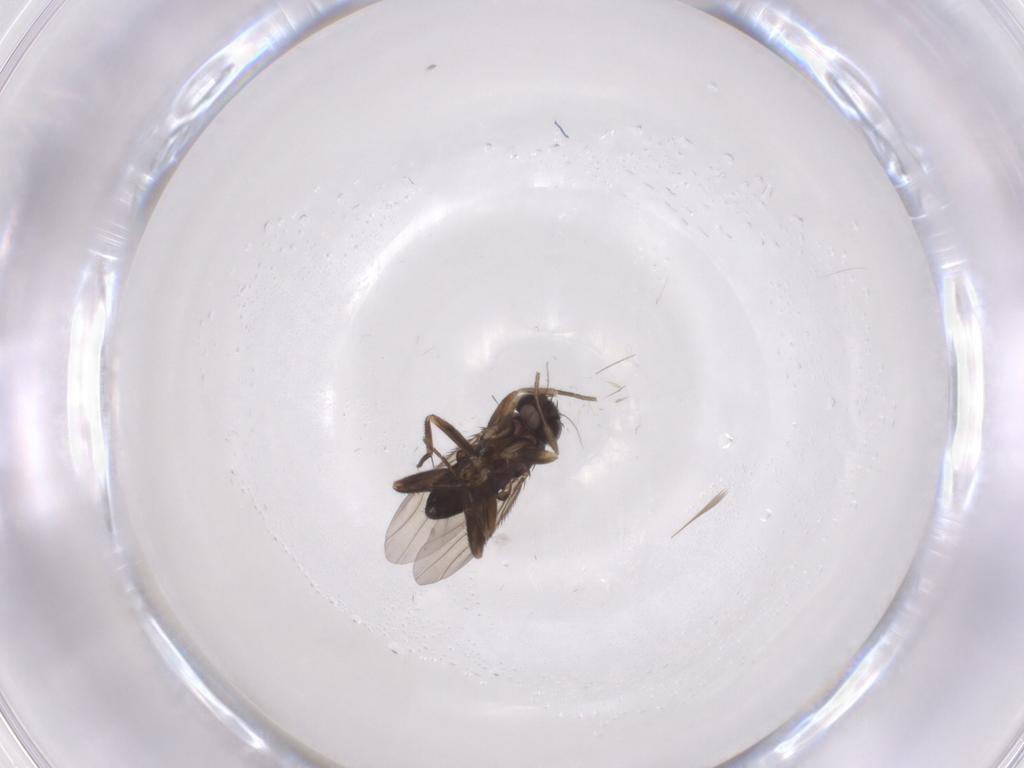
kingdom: Animalia
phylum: Arthropoda
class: Insecta
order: Diptera
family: Phoridae
